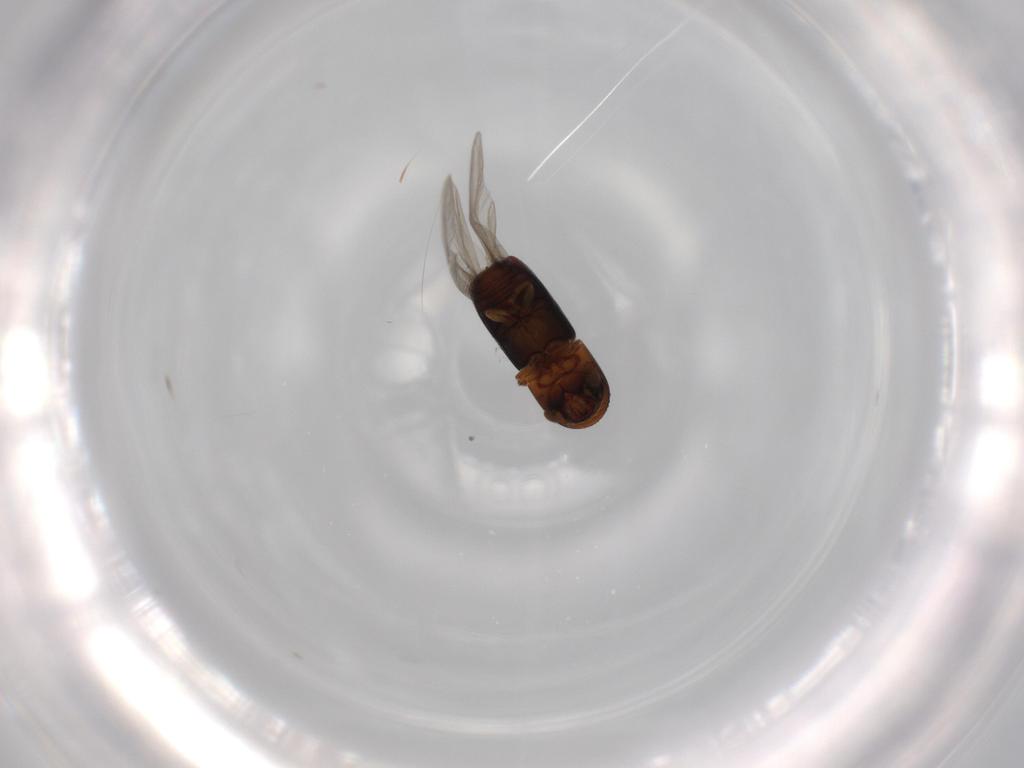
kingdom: Animalia
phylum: Arthropoda
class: Insecta
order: Coleoptera
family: Curculionidae
